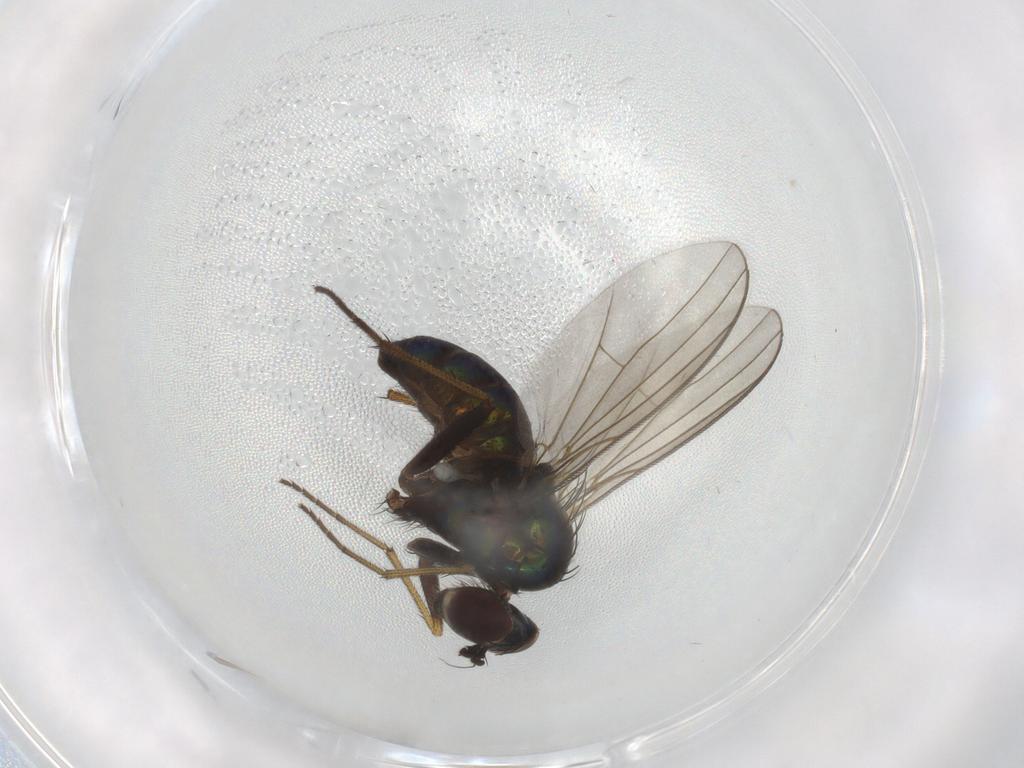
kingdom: Animalia
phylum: Arthropoda
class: Insecta
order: Diptera
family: Dolichopodidae
